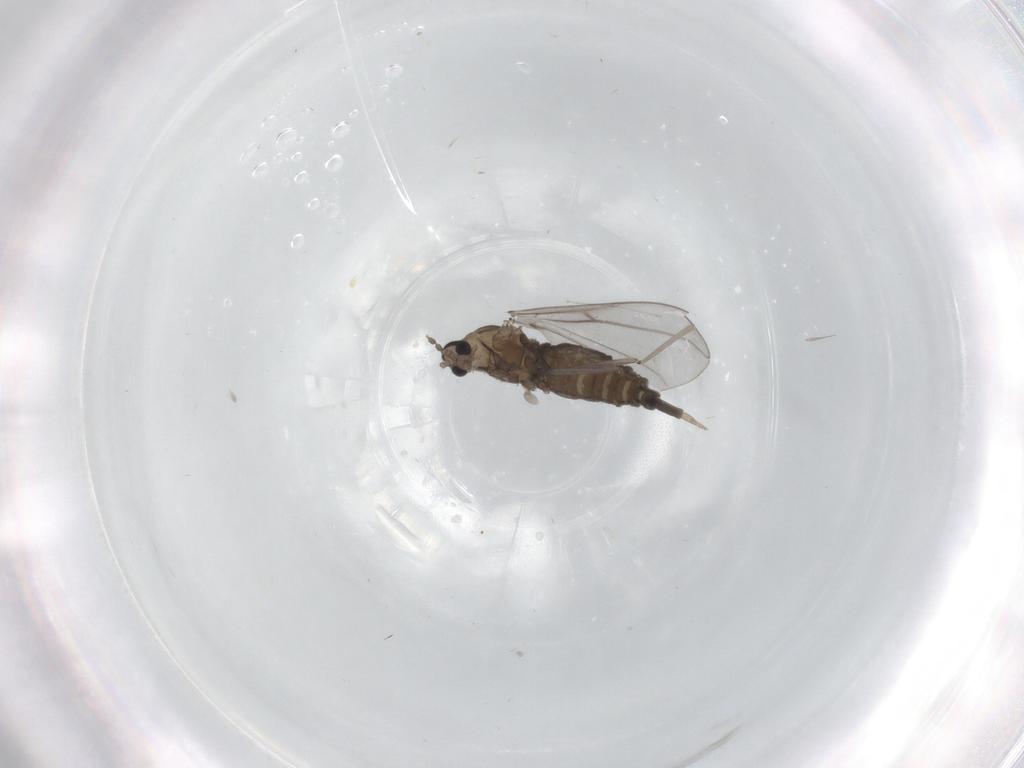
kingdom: Animalia
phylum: Arthropoda
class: Insecta
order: Diptera
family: Cecidomyiidae
